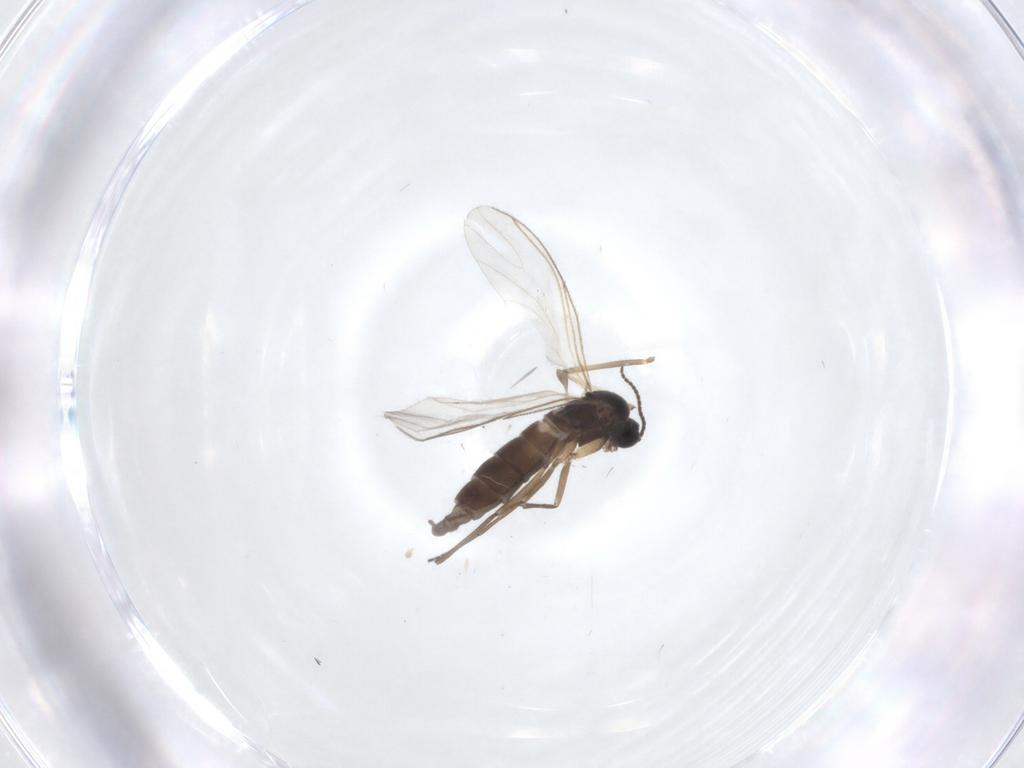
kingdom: Animalia
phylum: Arthropoda
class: Insecta
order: Diptera
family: Sciaridae
